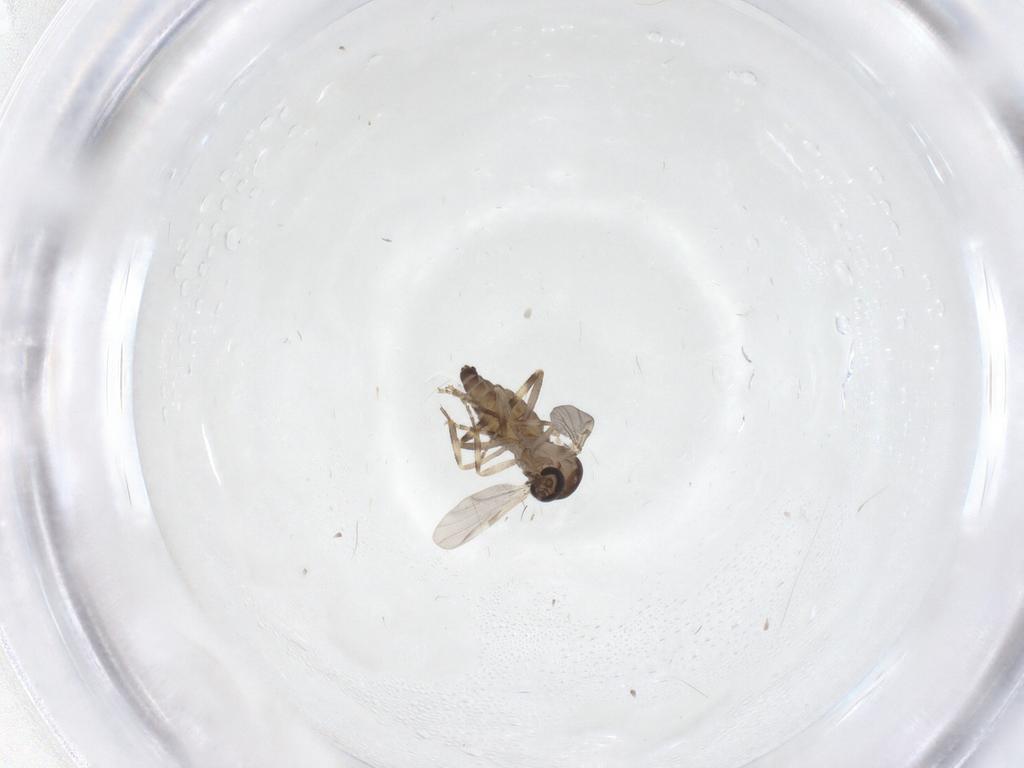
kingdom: Animalia
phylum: Arthropoda
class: Insecta
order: Diptera
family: Ceratopogonidae
